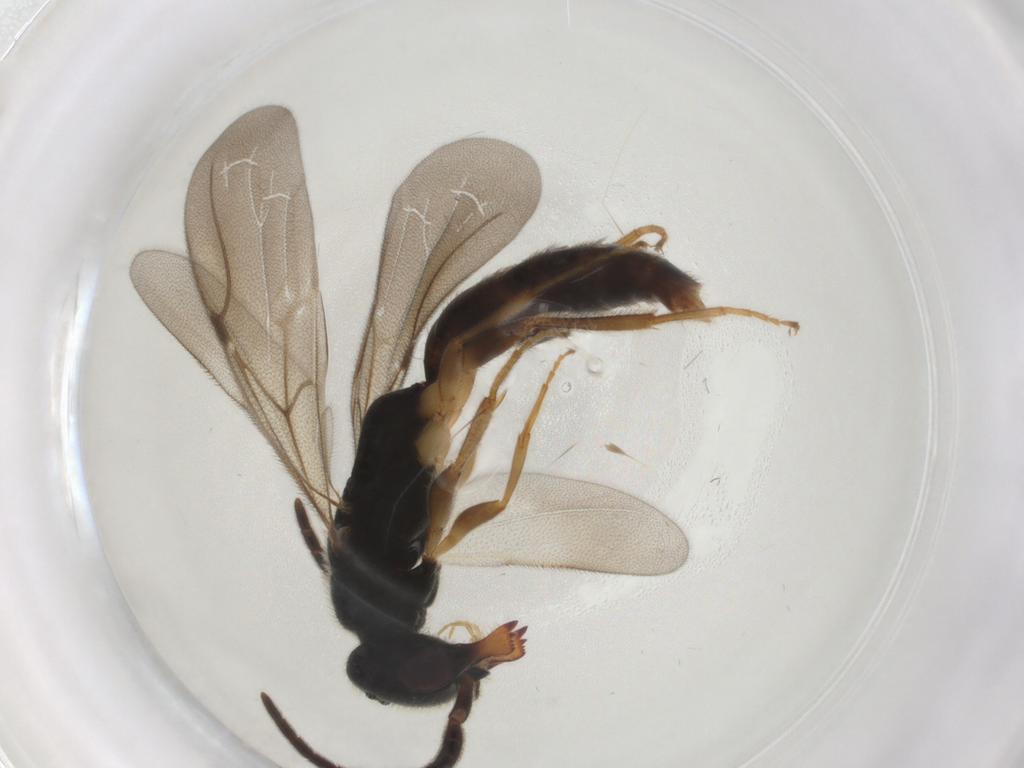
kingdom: Animalia
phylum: Arthropoda
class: Insecta
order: Hymenoptera
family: Bethylidae
